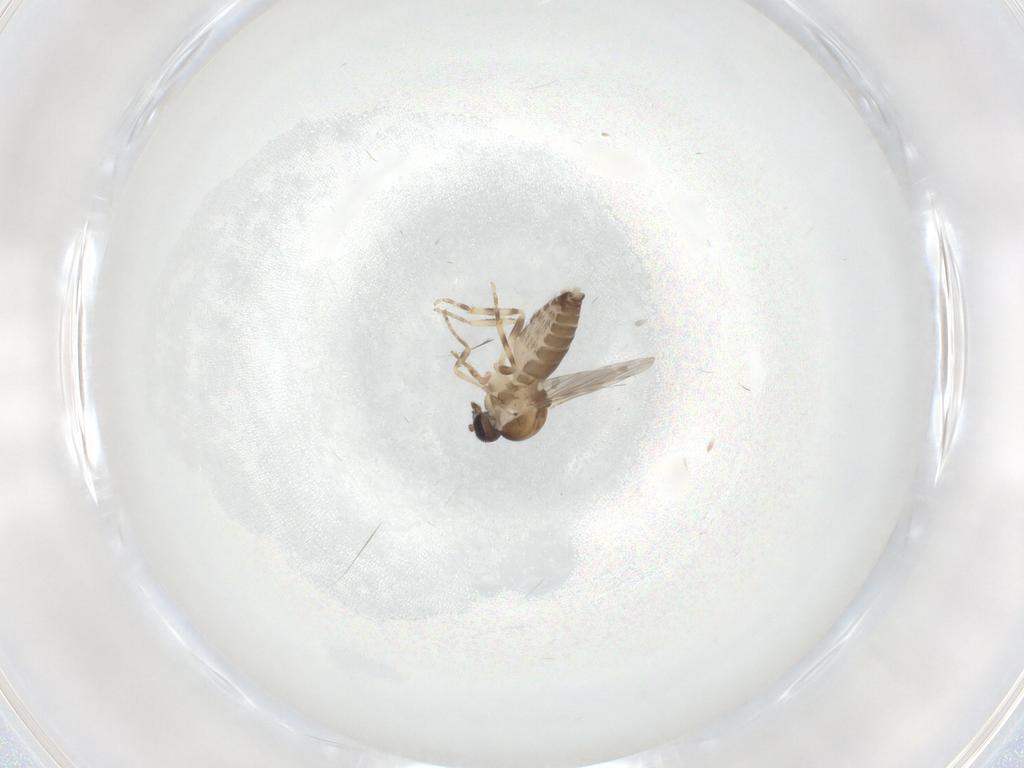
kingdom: Animalia
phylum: Arthropoda
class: Insecta
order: Diptera
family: Ceratopogonidae
